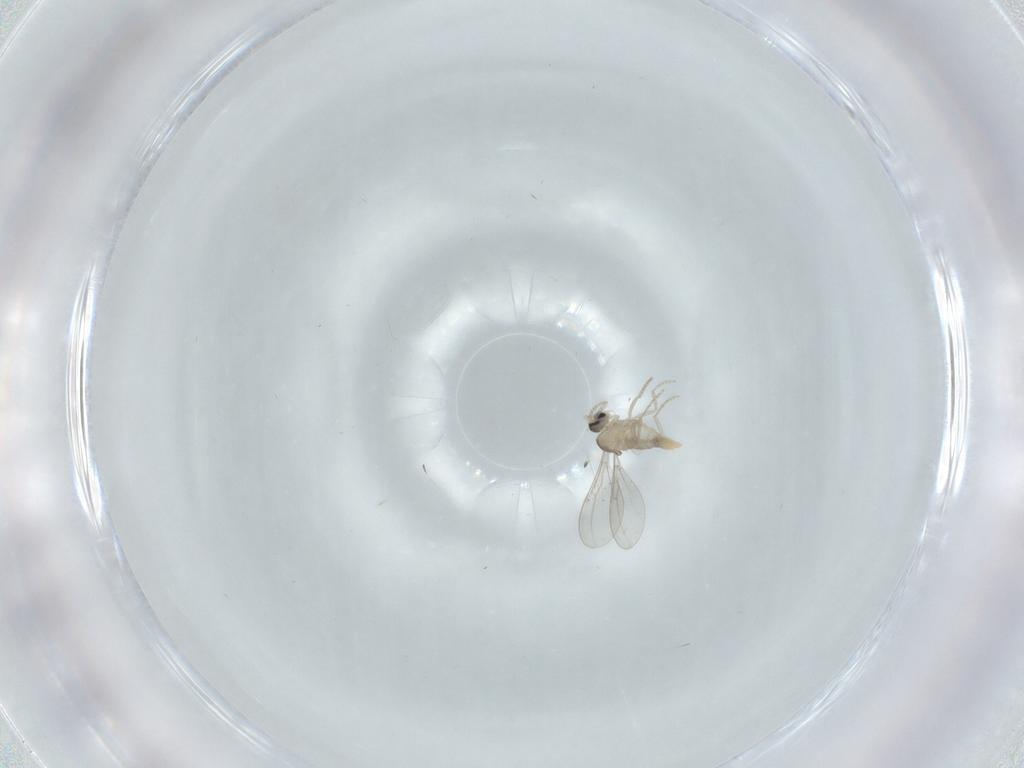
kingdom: Animalia
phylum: Arthropoda
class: Insecta
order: Diptera
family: Cecidomyiidae
